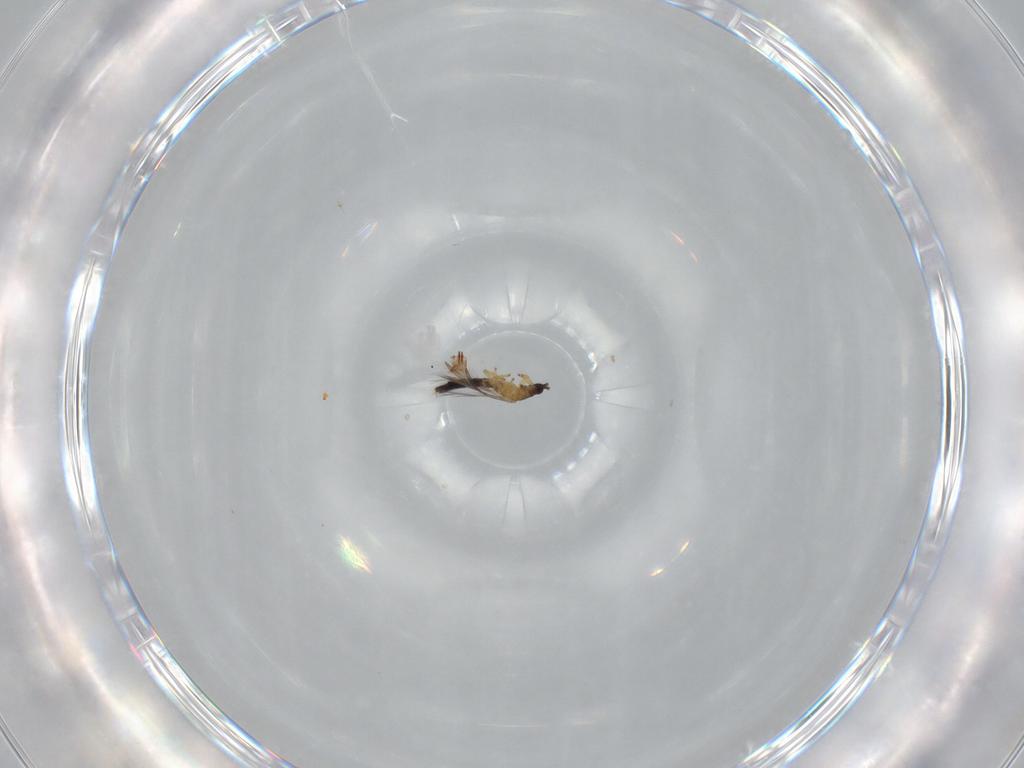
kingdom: Animalia
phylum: Arthropoda
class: Insecta
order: Thysanoptera
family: Thripidae
